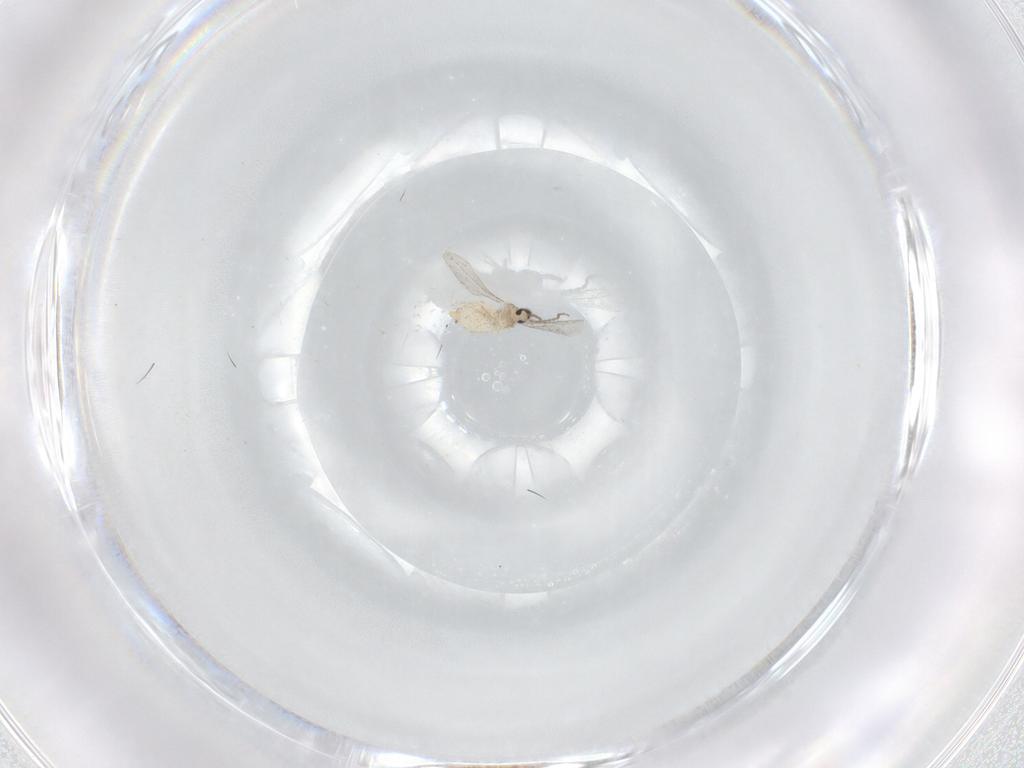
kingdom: Animalia
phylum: Arthropoda
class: Insecta
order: Diptera
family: Cecidomyiidae
